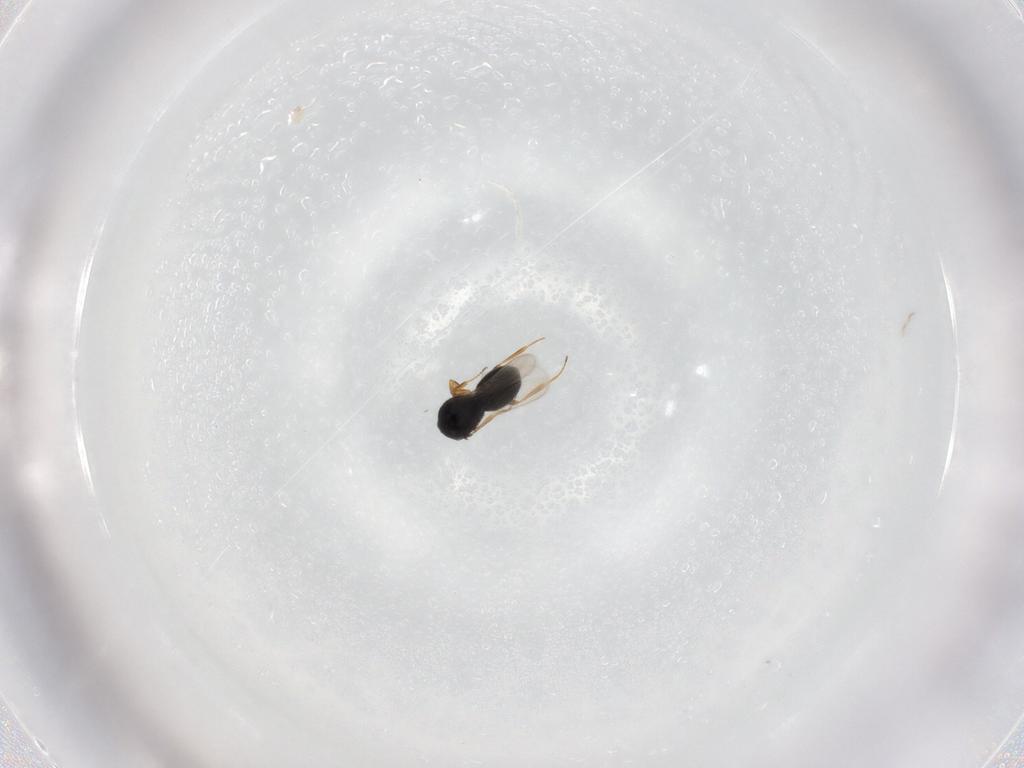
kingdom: Animalia
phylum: Arthropoda
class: Insecta
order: Hymenoptera
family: Scelionidae
